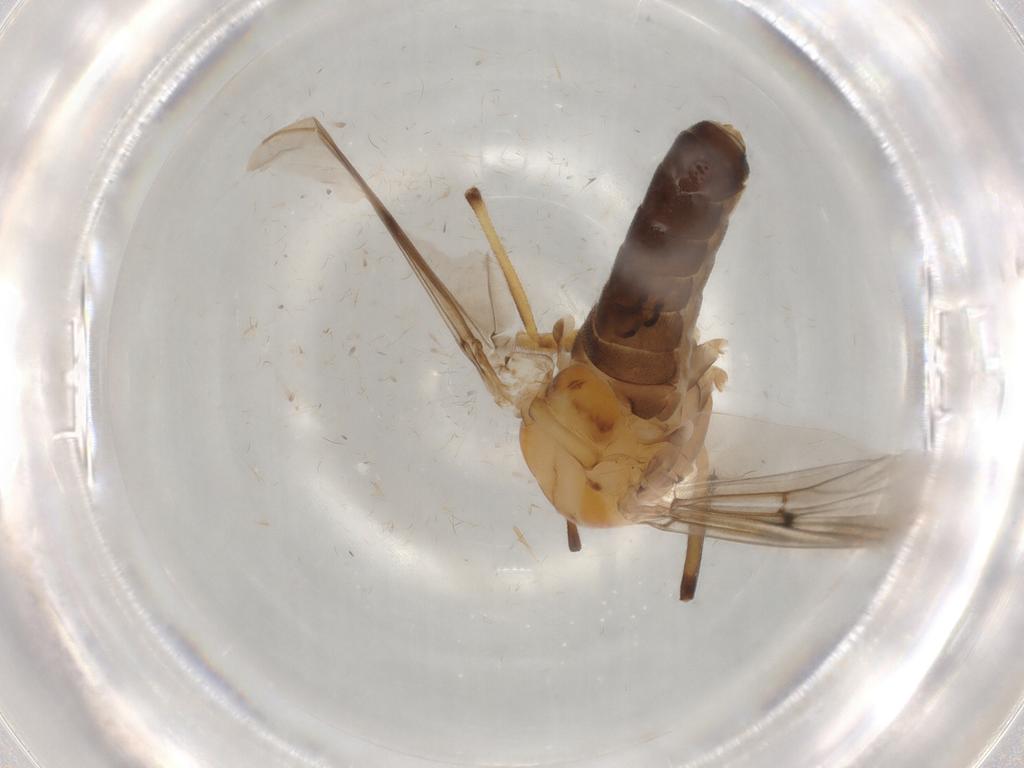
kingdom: Animalia
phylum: Arthropoda
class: Insecta
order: Diptera
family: Chironomidae
